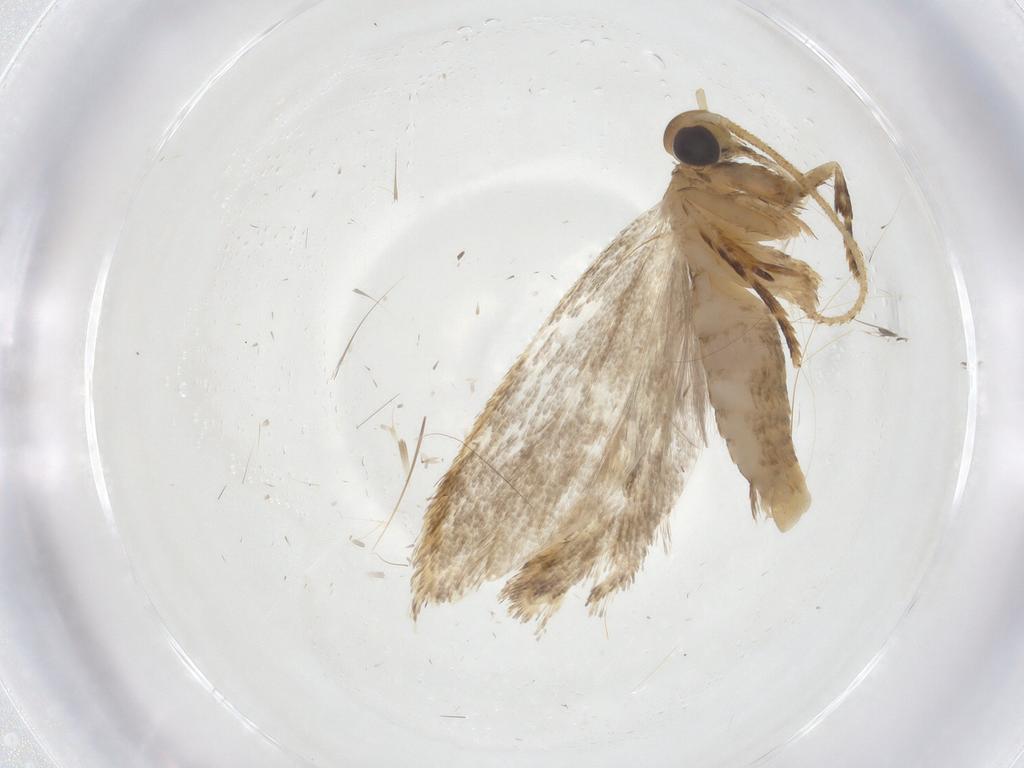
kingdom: Animalia
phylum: Arthropoda
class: Insecta
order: Lepidoptera
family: Oecophoridae
